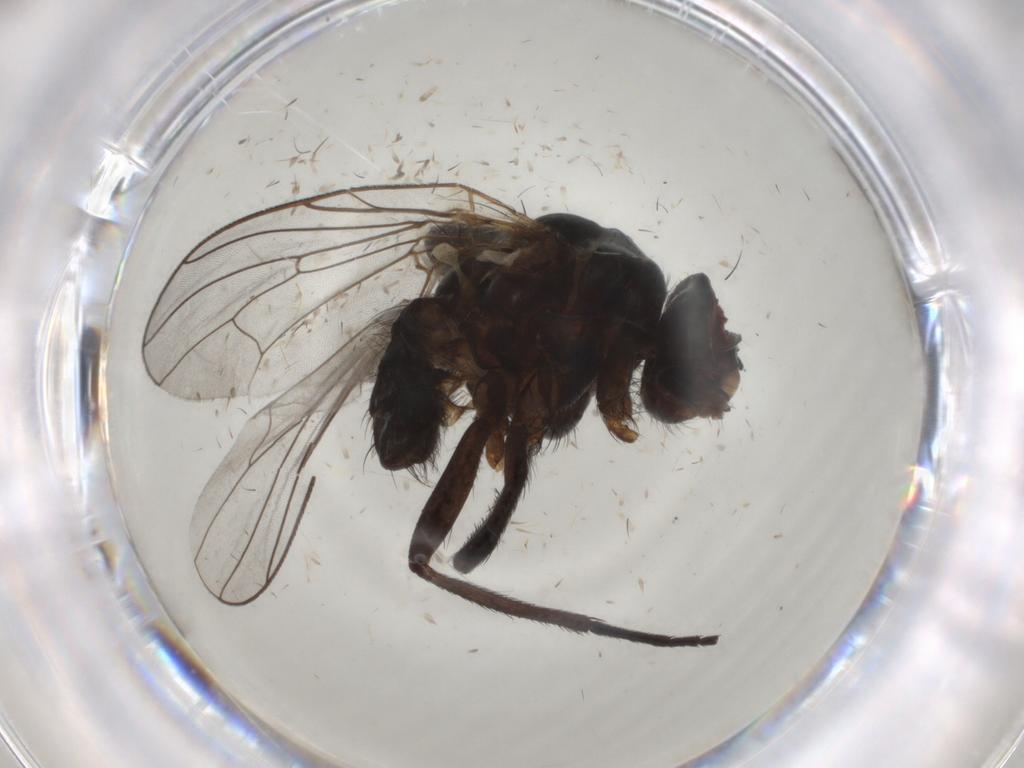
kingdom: Animalia
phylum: Arthropoda
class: Insecta
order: Diptera
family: Anthomyiidae
